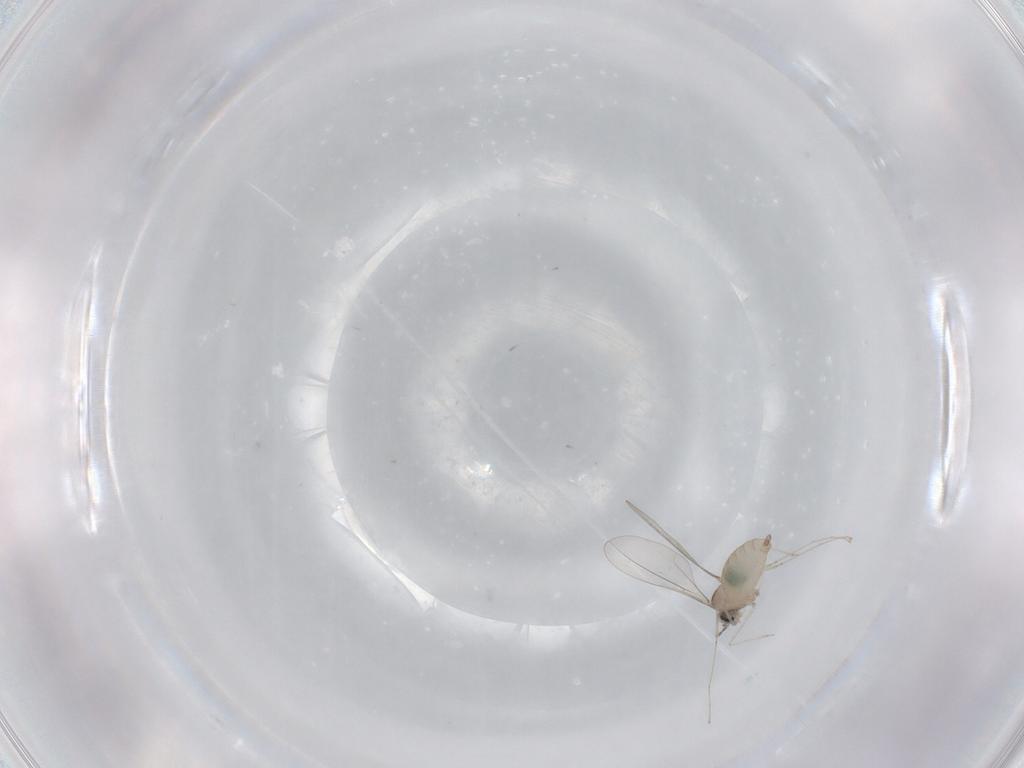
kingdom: Animalia
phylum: Arthropoda
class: Insecta
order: Diptera
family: Cecidomyiidae
